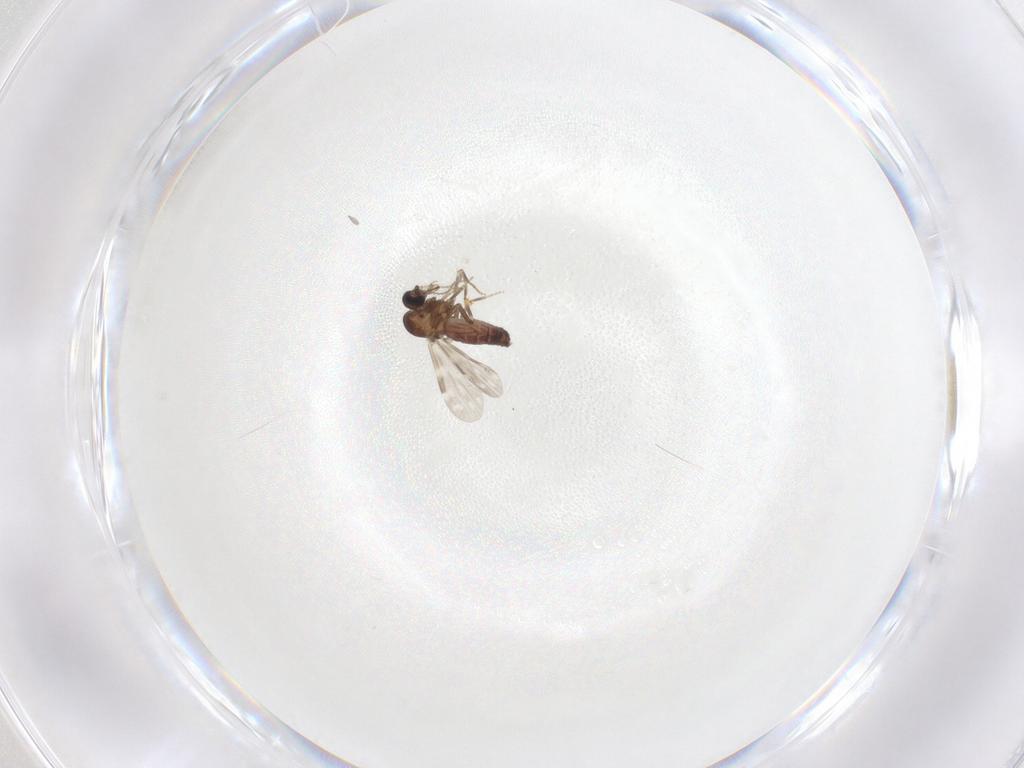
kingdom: Animalia
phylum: Arthropoda
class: Insecta
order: Diptera
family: Ceratopogonidae
